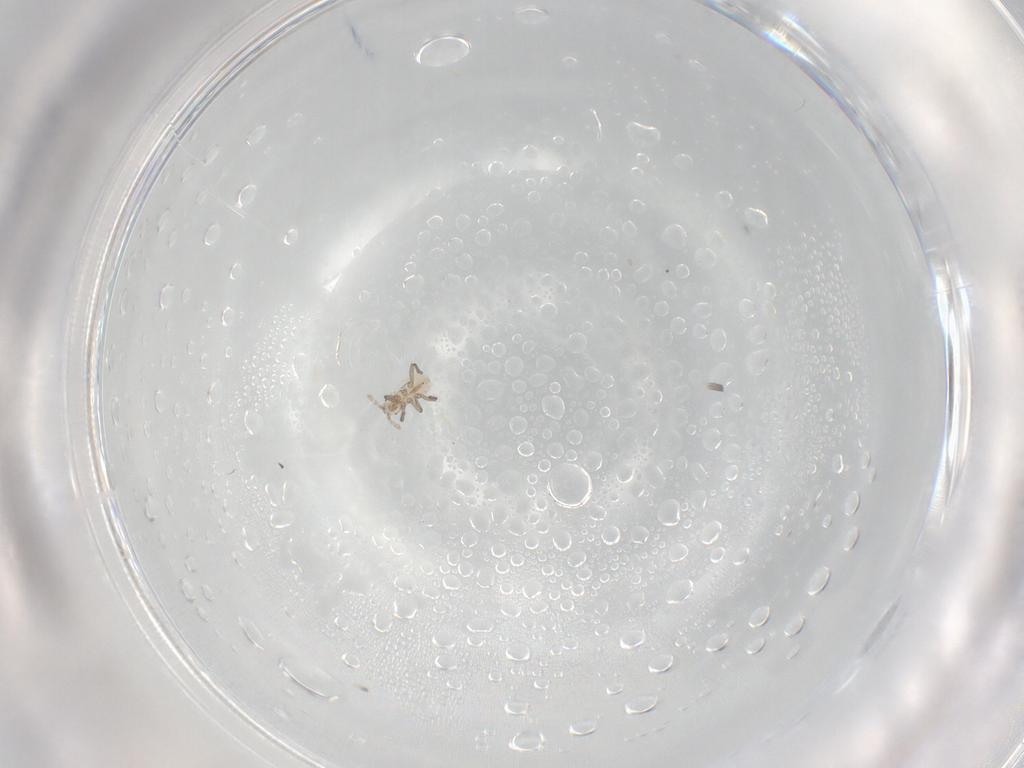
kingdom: Animalia
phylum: Arthropoda
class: Insecta
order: Hemiptera
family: Aphididae
